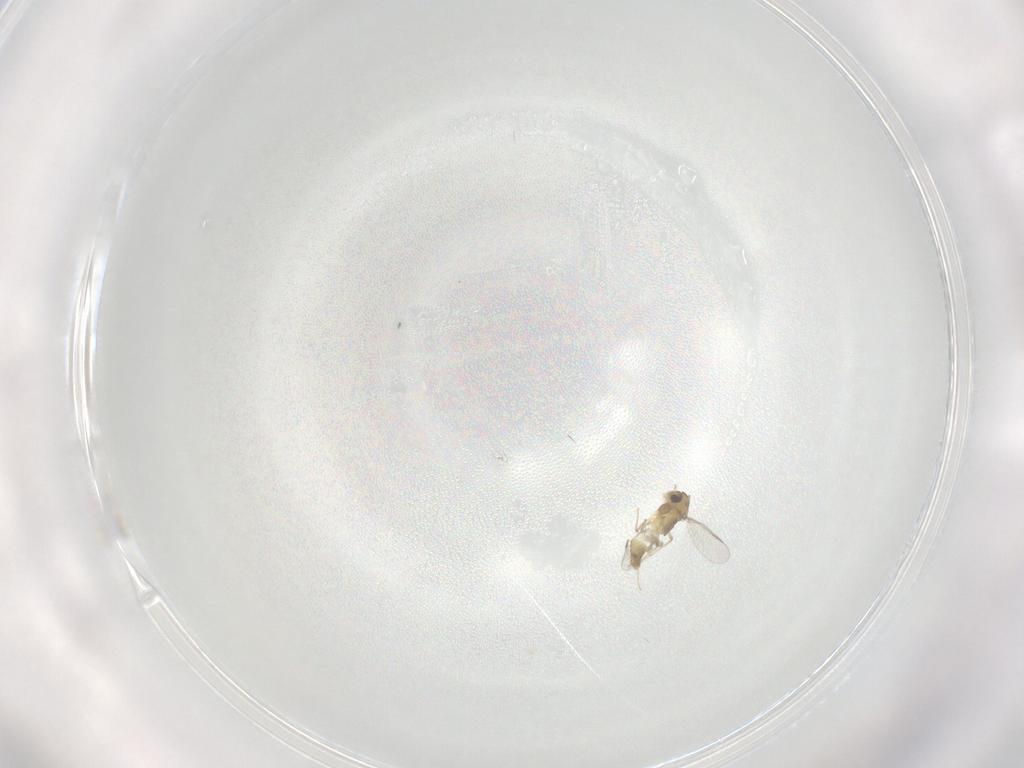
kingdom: Animalia
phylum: Arthropoda
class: Insecta
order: Diptera
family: Chironomidae
